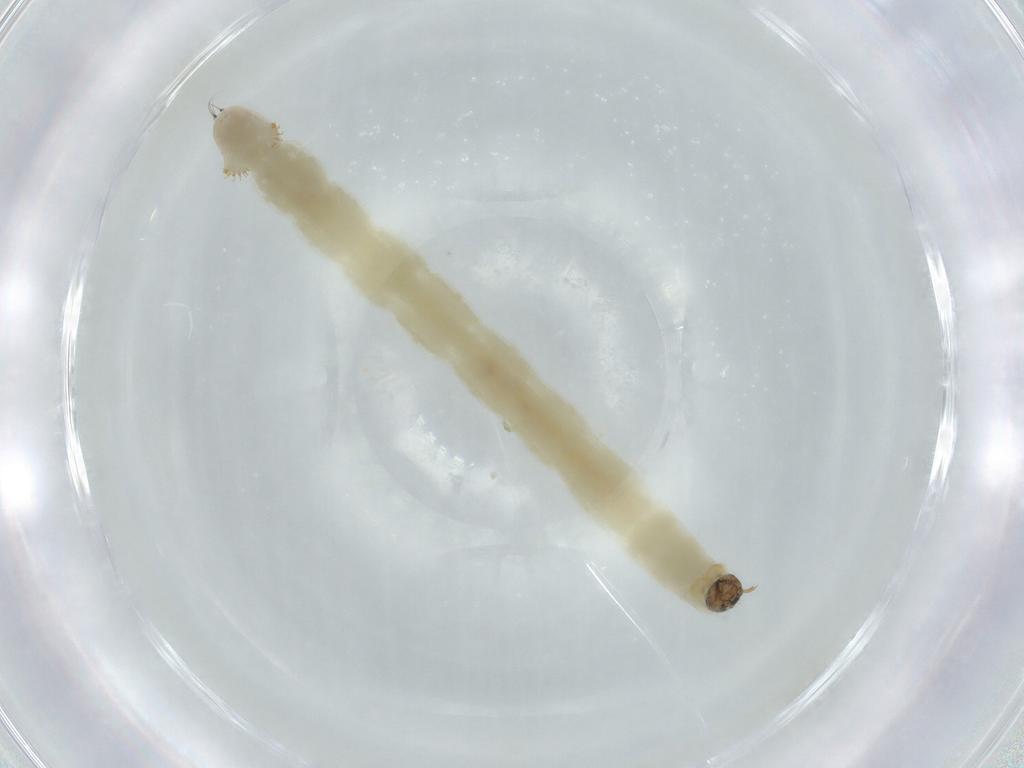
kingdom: Animalia
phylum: Arthropoda
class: Insecta
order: Diptera
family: Chironomidae
